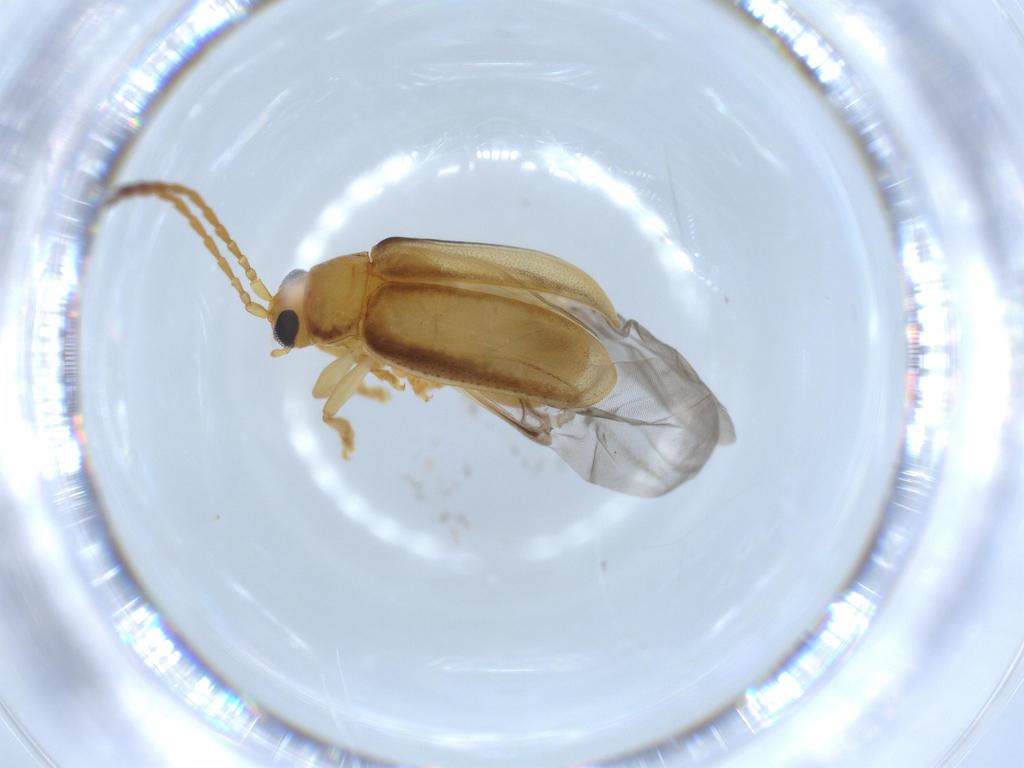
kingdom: Animalia
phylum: Arthropoda
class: Insecta
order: Coleoptera
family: Chrysomelidae
